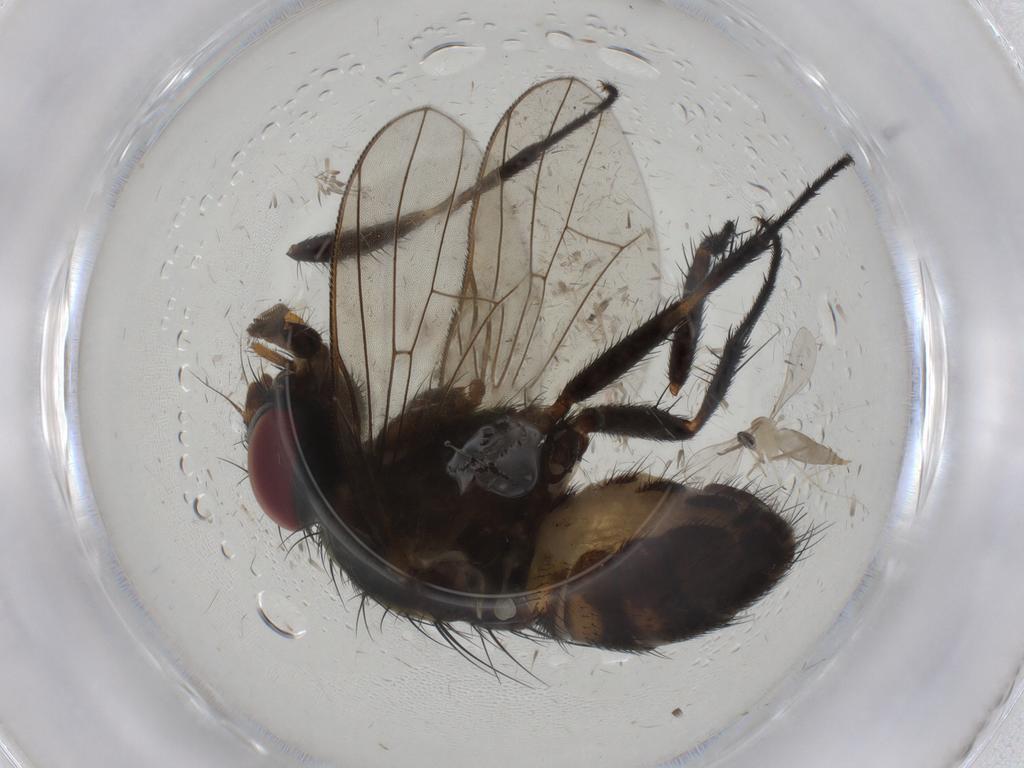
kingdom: Animalia
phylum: Arthropoda
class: Insecta
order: Diptera
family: Fanniidae
